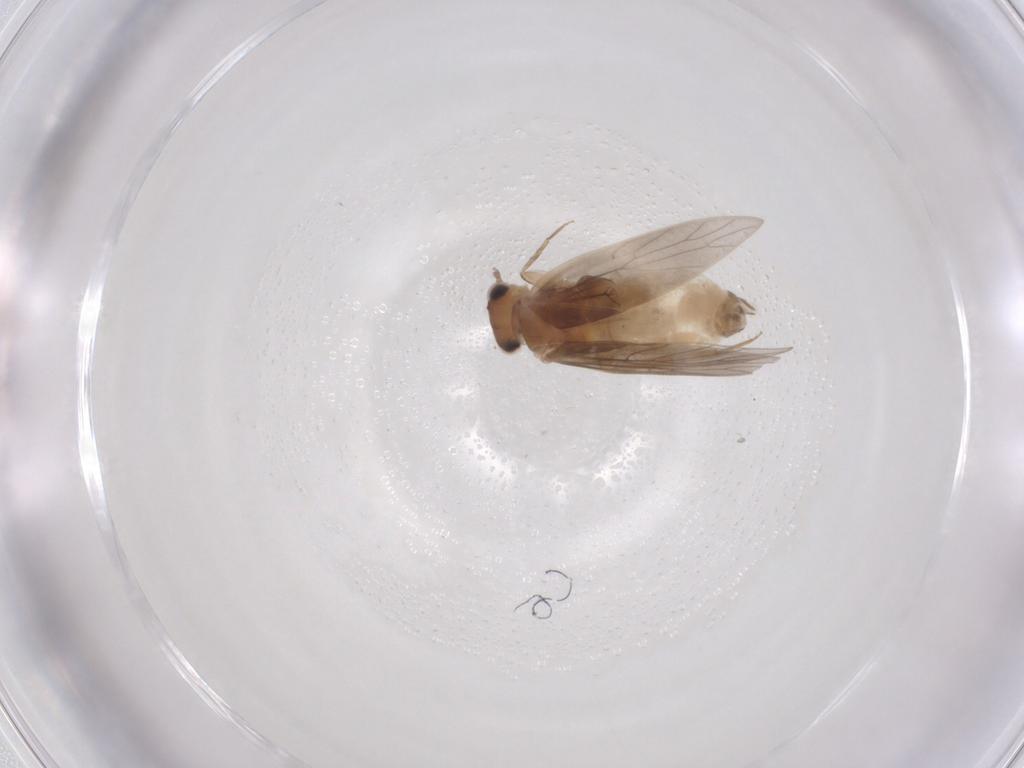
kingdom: Animalia
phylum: Arthropoda
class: Insecta
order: Psocodea
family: Lepidopsocidae
